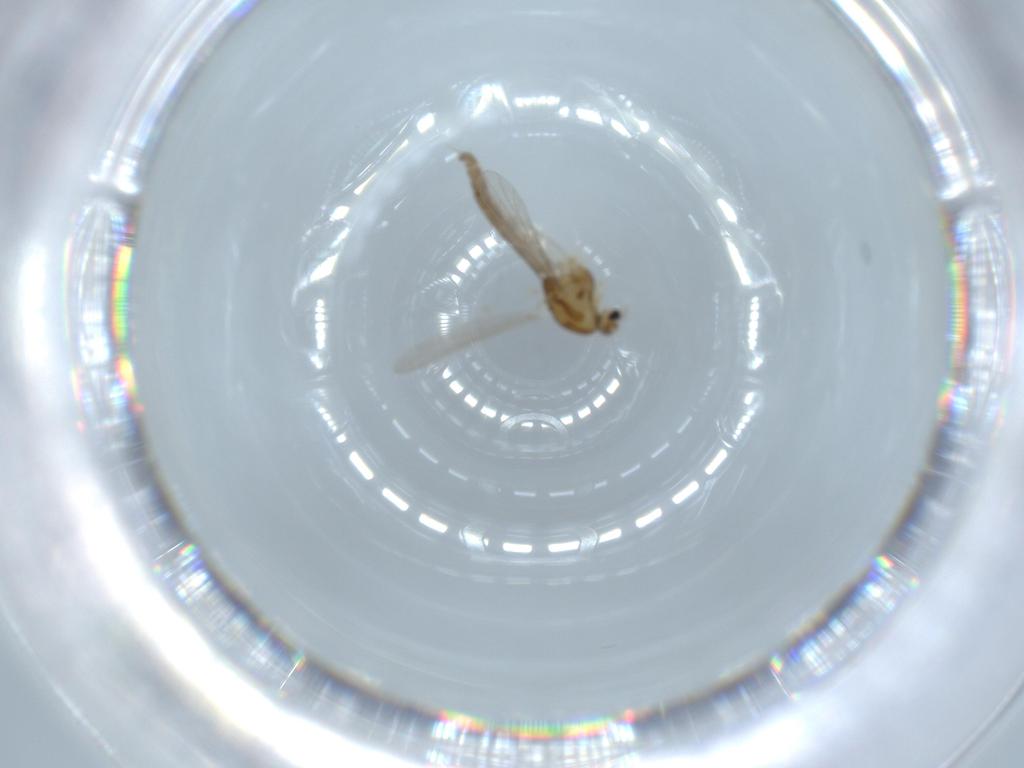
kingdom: Animalia
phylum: Arthropoda
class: Insecta
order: Diptera
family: Chironomidae
